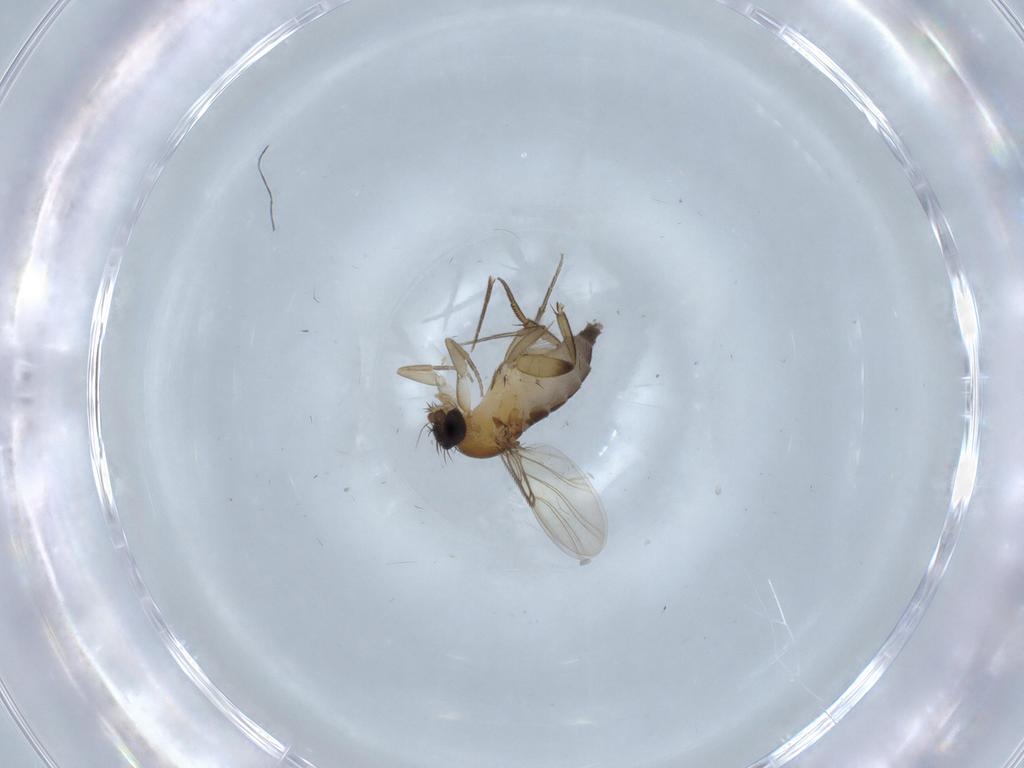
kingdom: Animalia
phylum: Arthropoda
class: Insecta
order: Diptera
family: Phoridae
